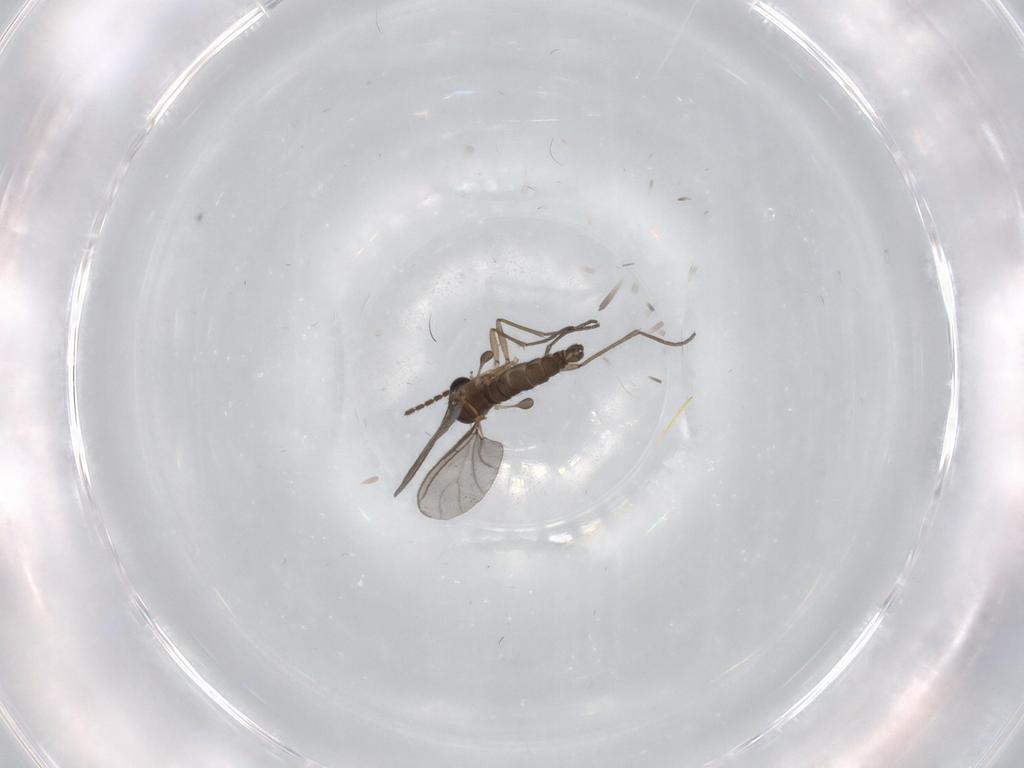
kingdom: Animalia
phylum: Arthropoda
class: Insecta
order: Diptera
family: Sciaridae
